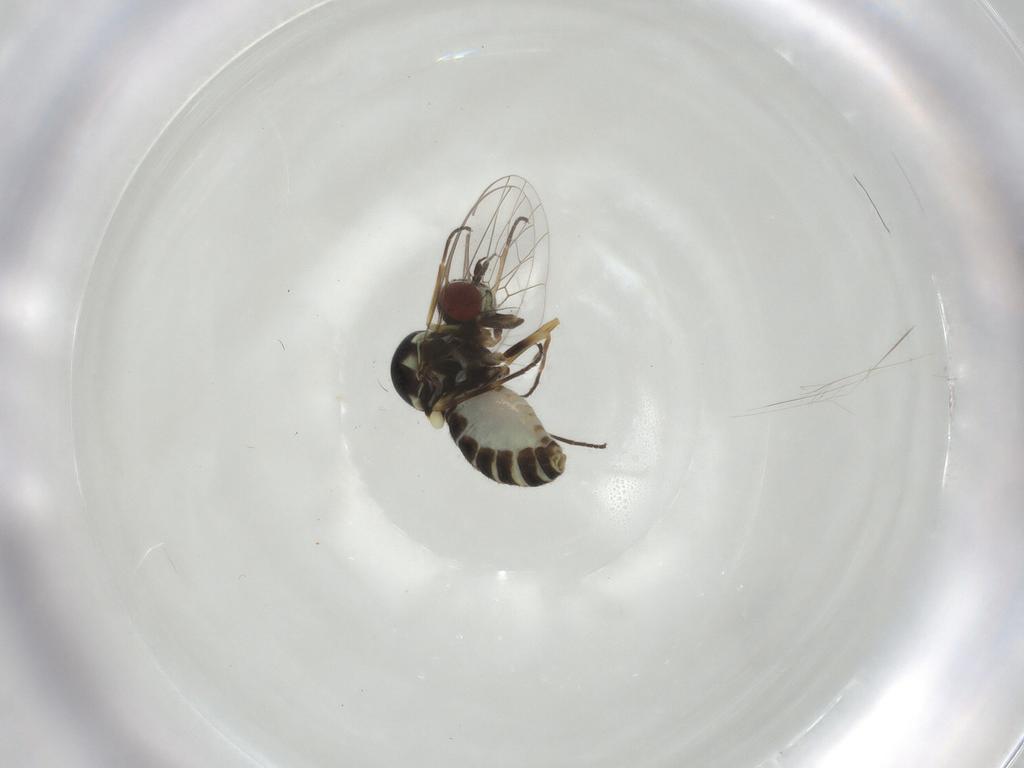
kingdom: Animalia
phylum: Arthropoda
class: Insecta
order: Diptera
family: Bombyliidae
